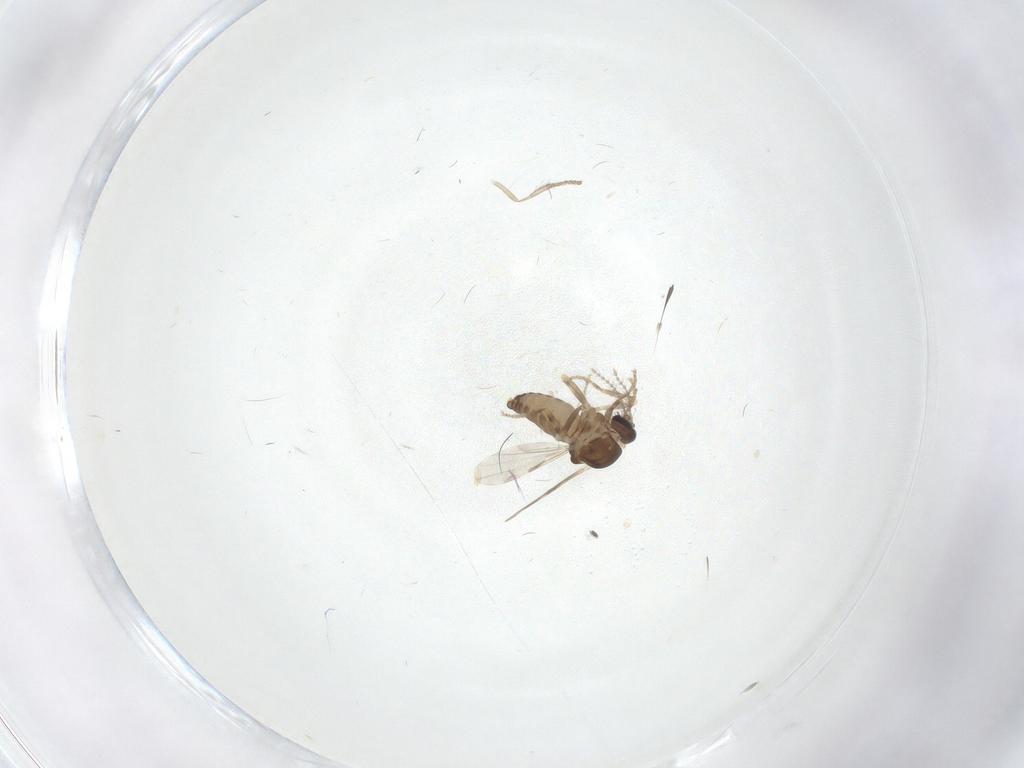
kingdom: Animalia
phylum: Arthropoda
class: Insecta
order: Diptera
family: Ceratopogonidae
